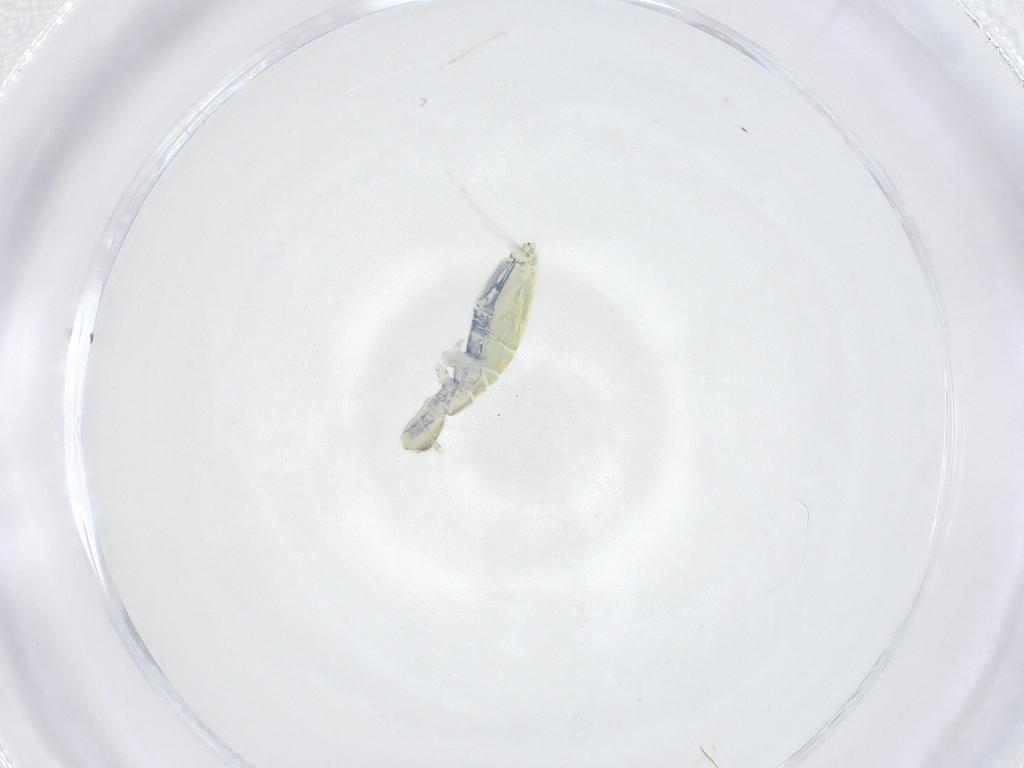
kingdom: Animalia
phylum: Arthropoda
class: Collembola
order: Entomobryomorpha
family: Paronellidae
